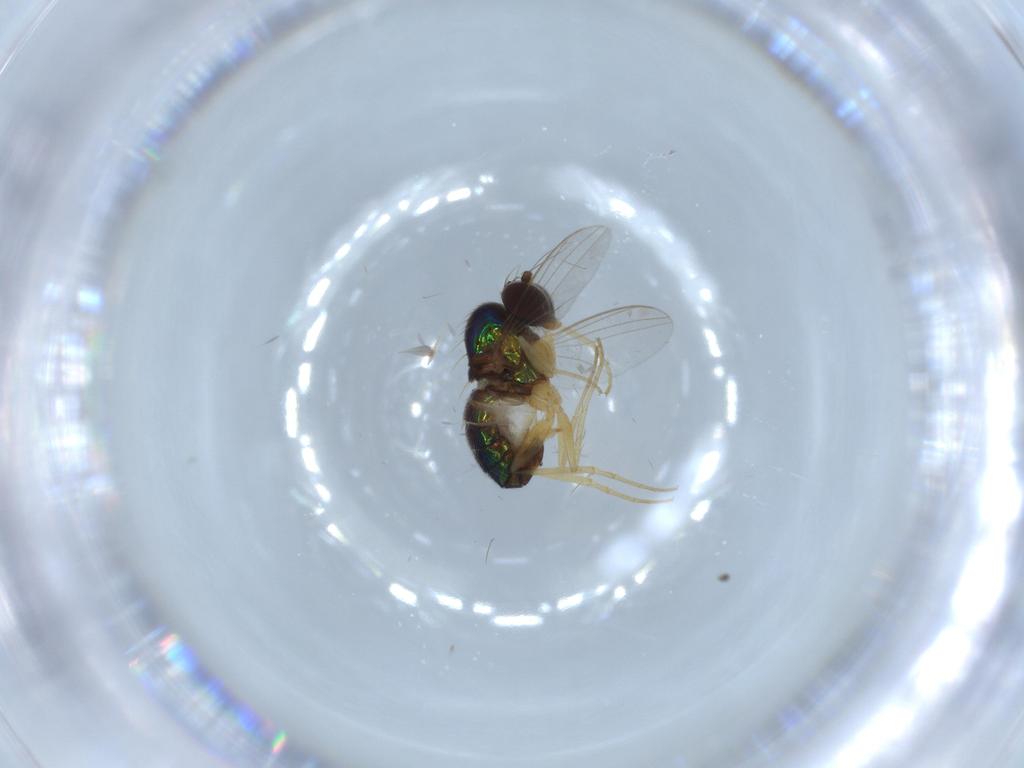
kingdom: Animalia
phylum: Arthropoda
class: Insecta
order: Diptera
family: Dolichopodidae
